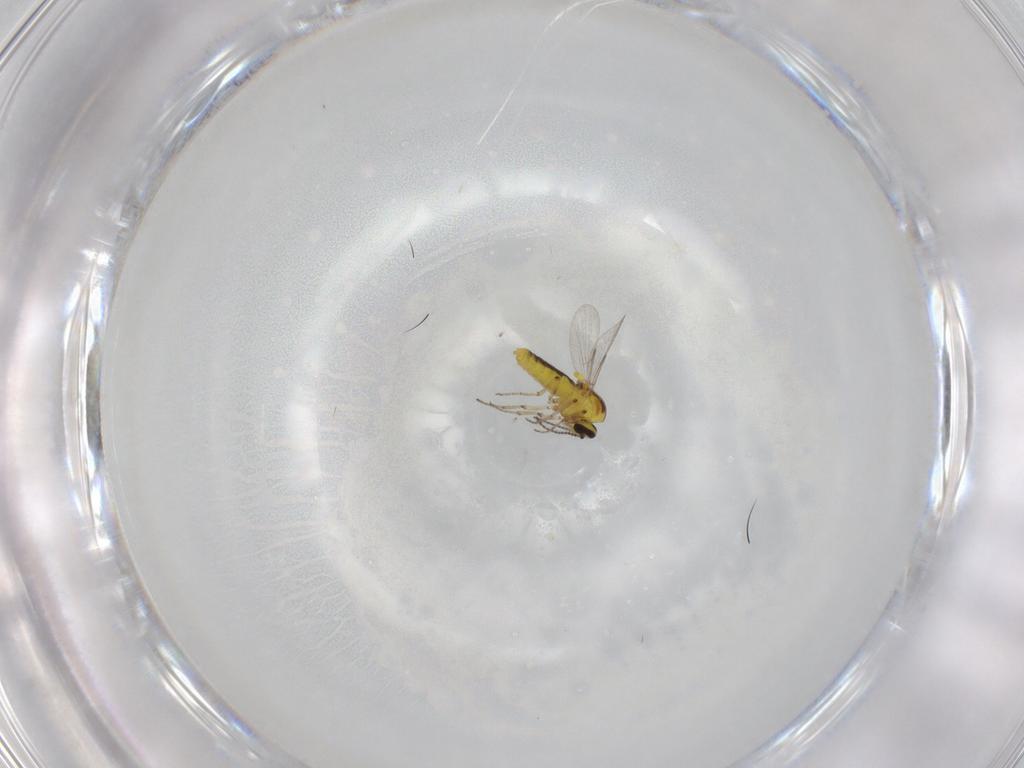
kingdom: Animalia
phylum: Arthropoda
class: Insecta
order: Diptera
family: Ceratopogonidae
